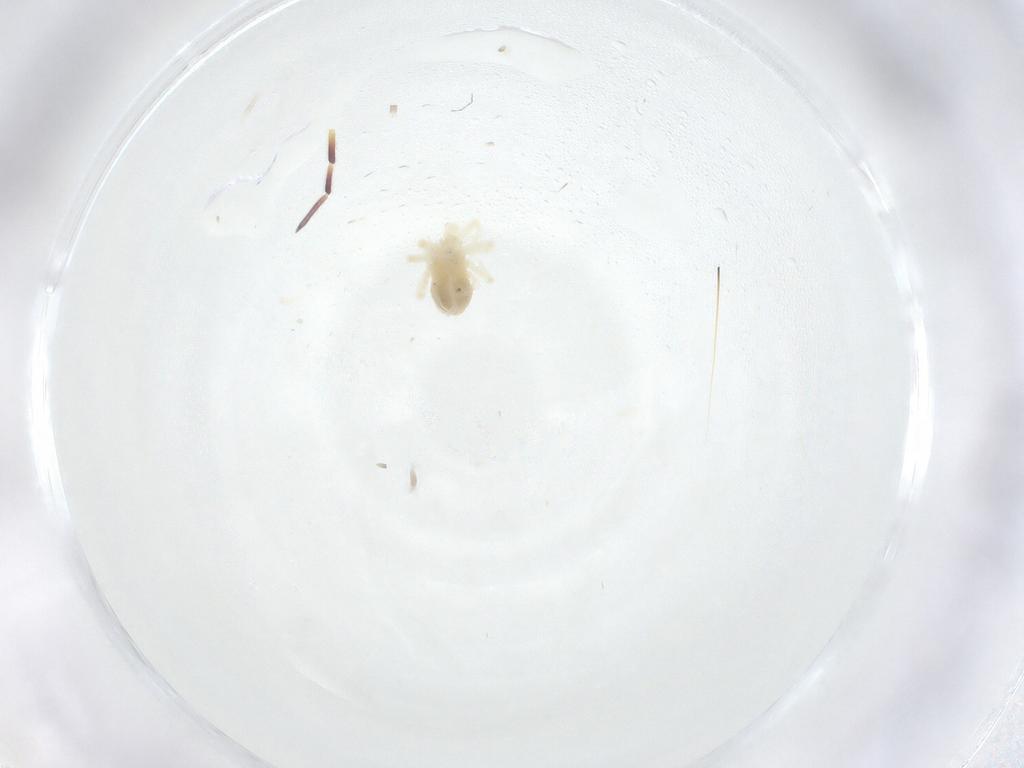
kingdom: Animalia
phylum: Arthropoda
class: Arachnida
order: Trombidiformes
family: Anystidae
